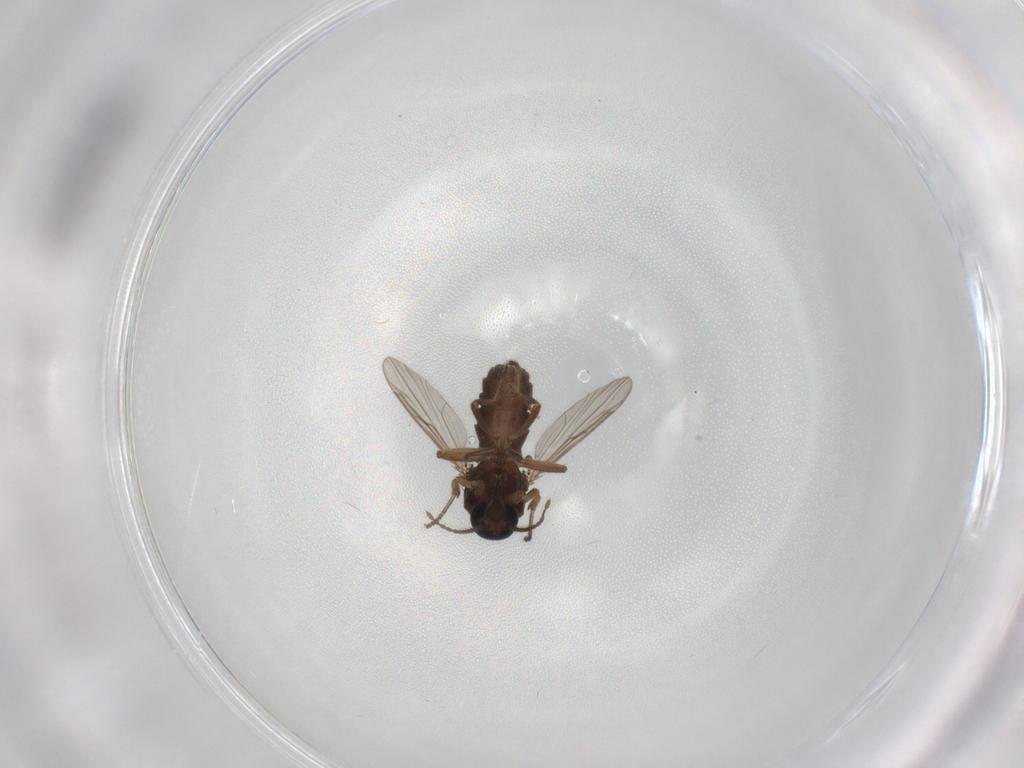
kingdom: Animalia
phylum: Arthropoda
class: Insecta
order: Diptera
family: Ceratopogonidae
